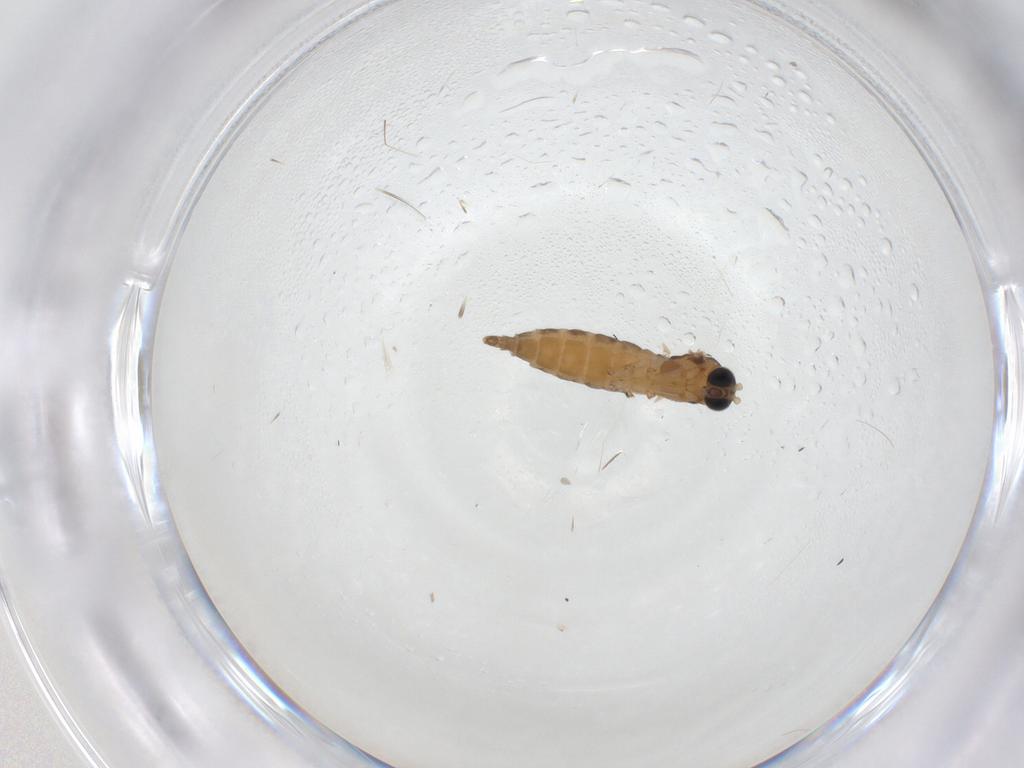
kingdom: Animalia
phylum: Arthropoda
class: Insecta
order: Diptera
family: Sciaridae
